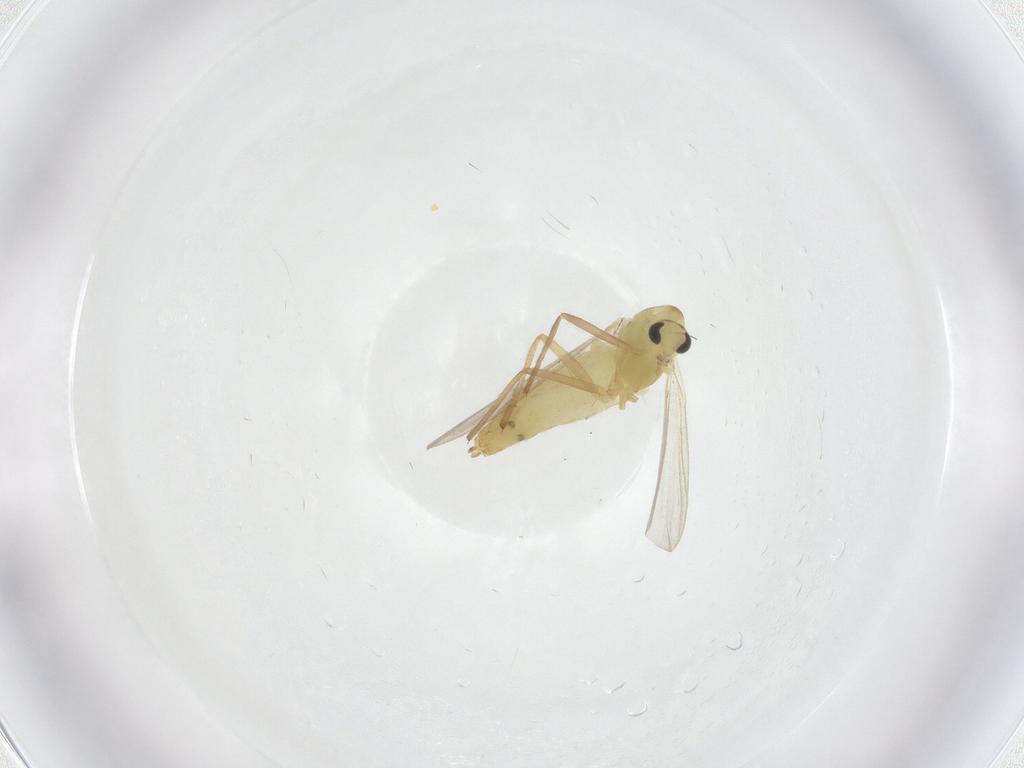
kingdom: Animalia
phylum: Arthropoda
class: Insecta
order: Diptera
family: Chironomidae
